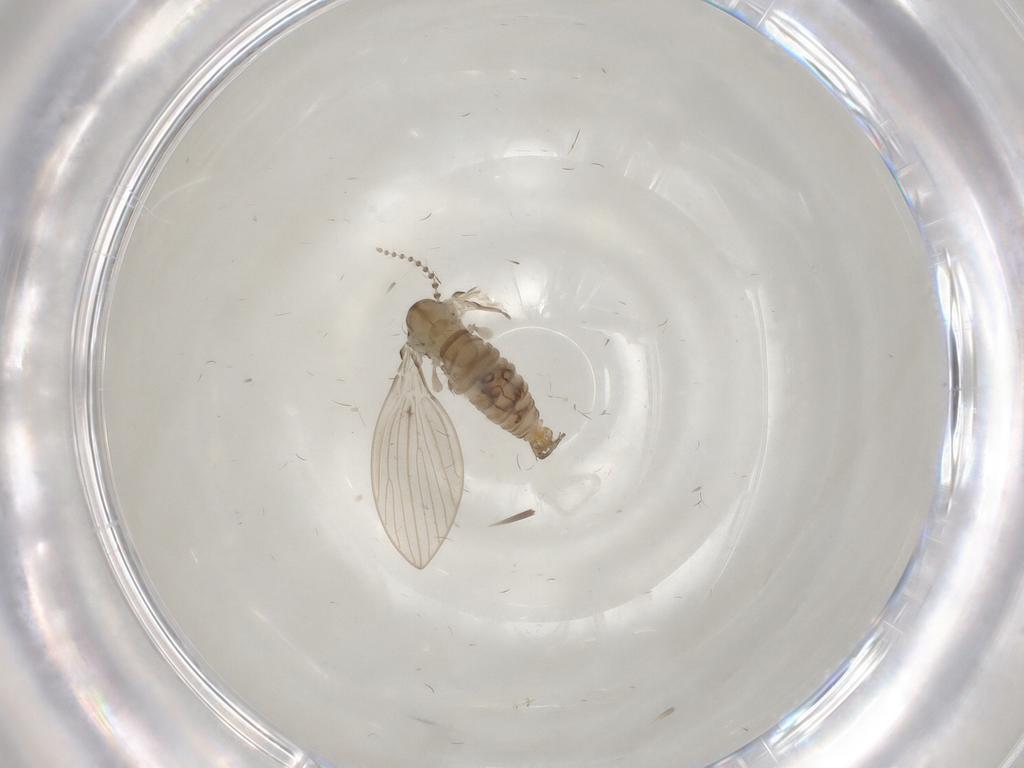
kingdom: Animalia
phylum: Arthropoda
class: Insecta
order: Diptera
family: Psychodidae
